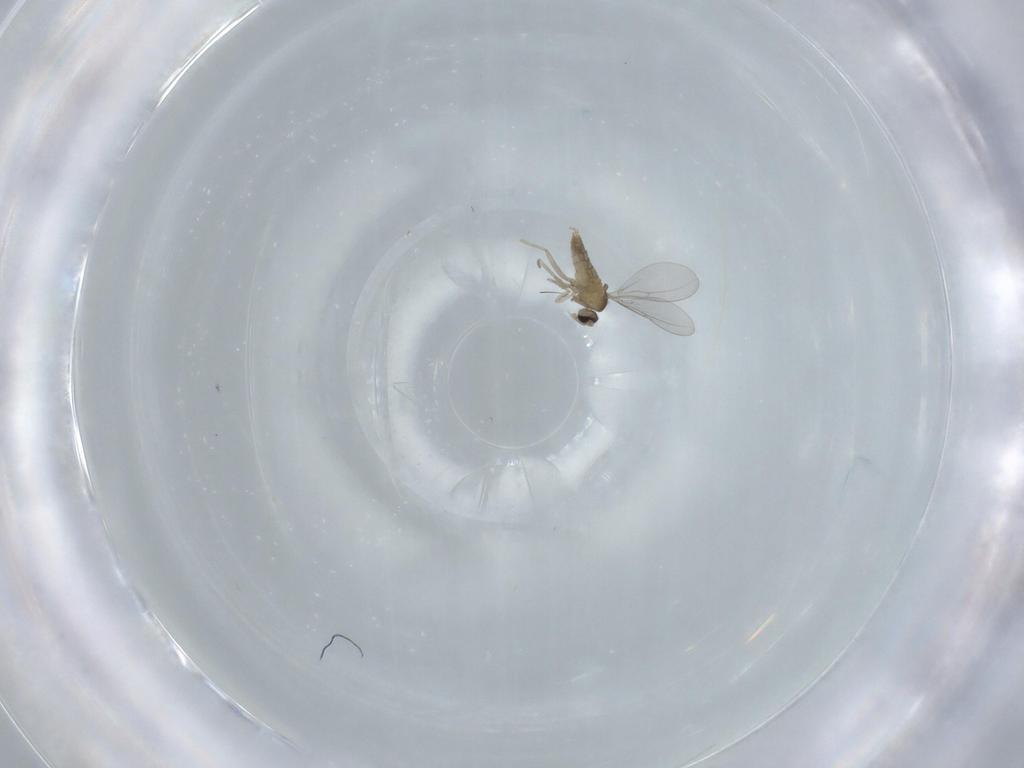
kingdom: Animalia
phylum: Arthropoda
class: Insecta
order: Diptera
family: Cecidomyiidae
